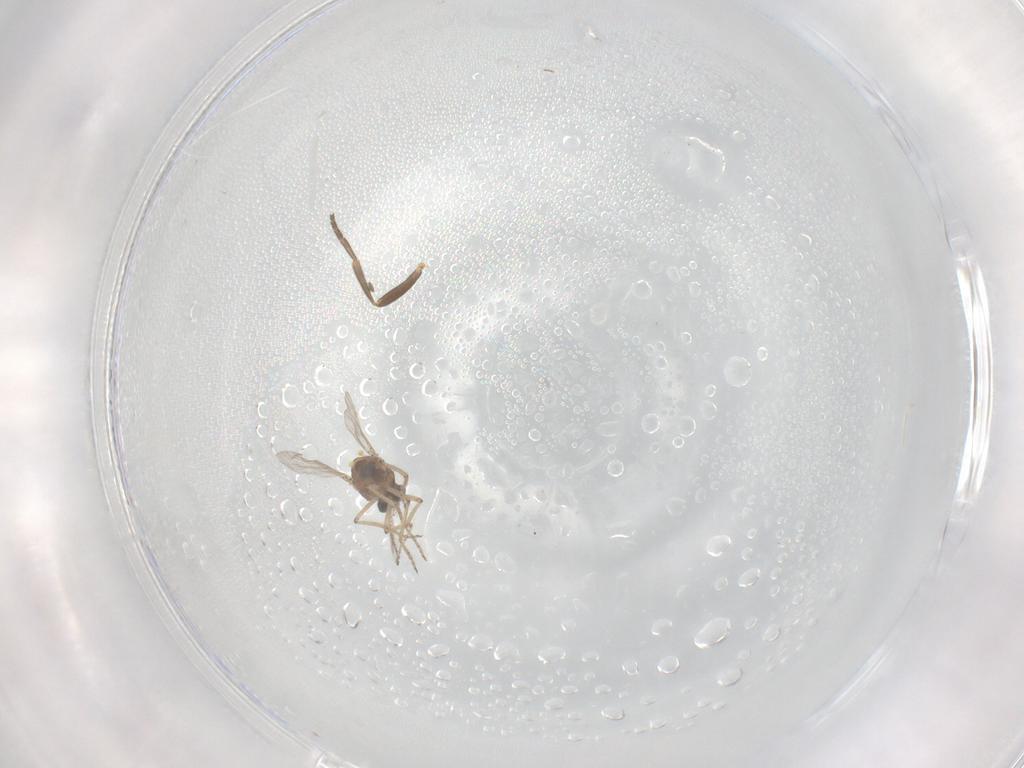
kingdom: Animalia
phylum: Arthropoda
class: Insecta
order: Diptera
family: Ceratopogonidae
